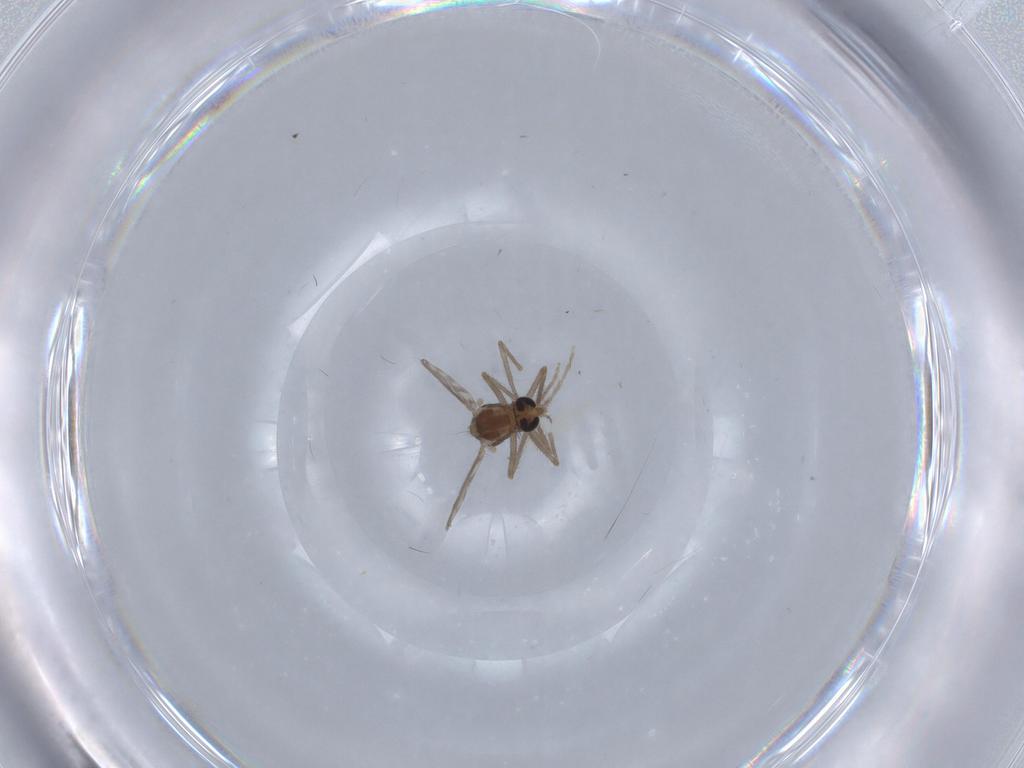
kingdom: Animalia
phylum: Arthropoda
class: Insecta
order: Diptera
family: Chironomidae
